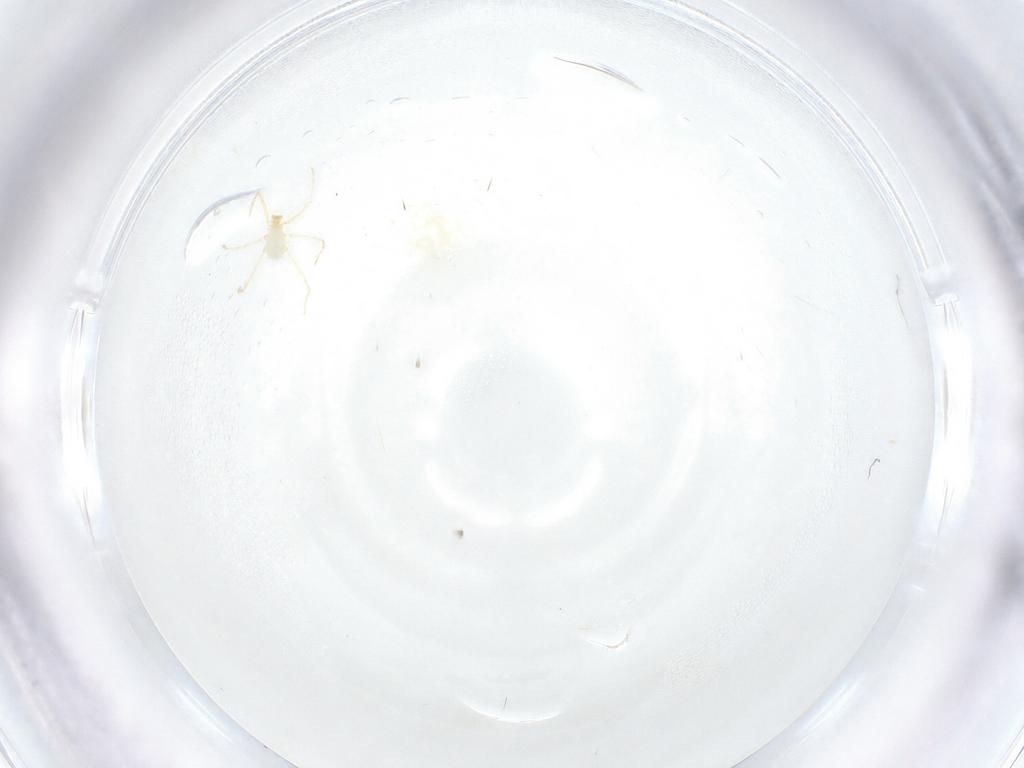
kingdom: Animalia
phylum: Arthropoda
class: Arachnida
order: Trombidiformes
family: Erythraeidae
